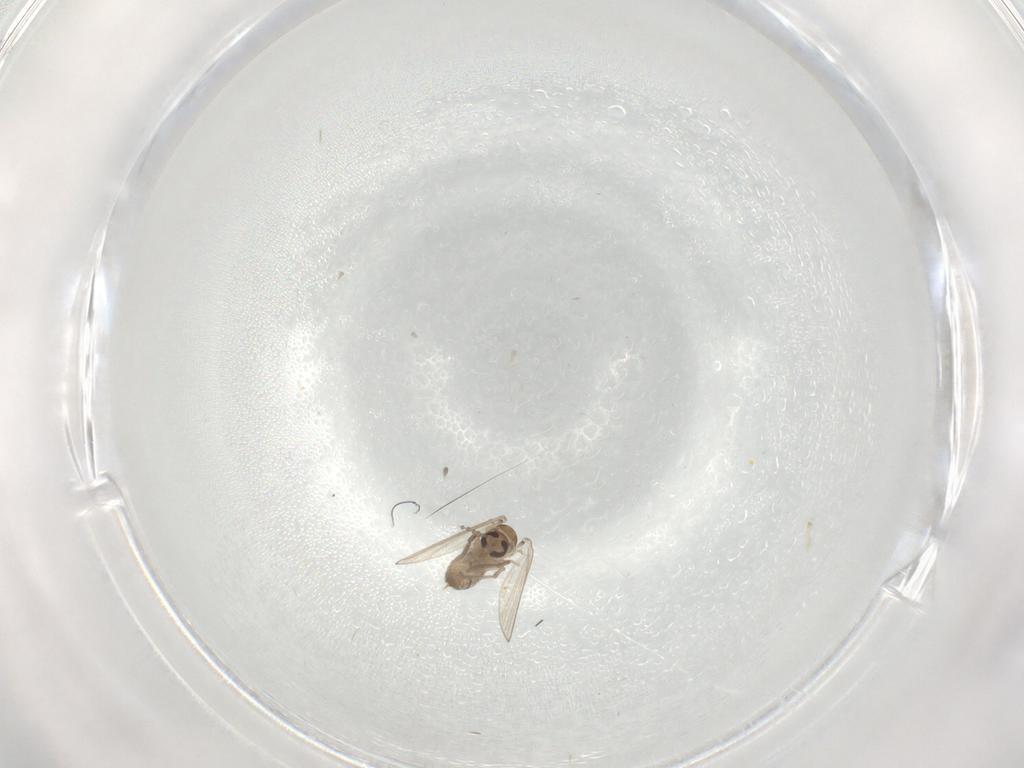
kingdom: Animalia
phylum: Arthropoda
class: Insecta
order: Diptera
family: Psychodidae
